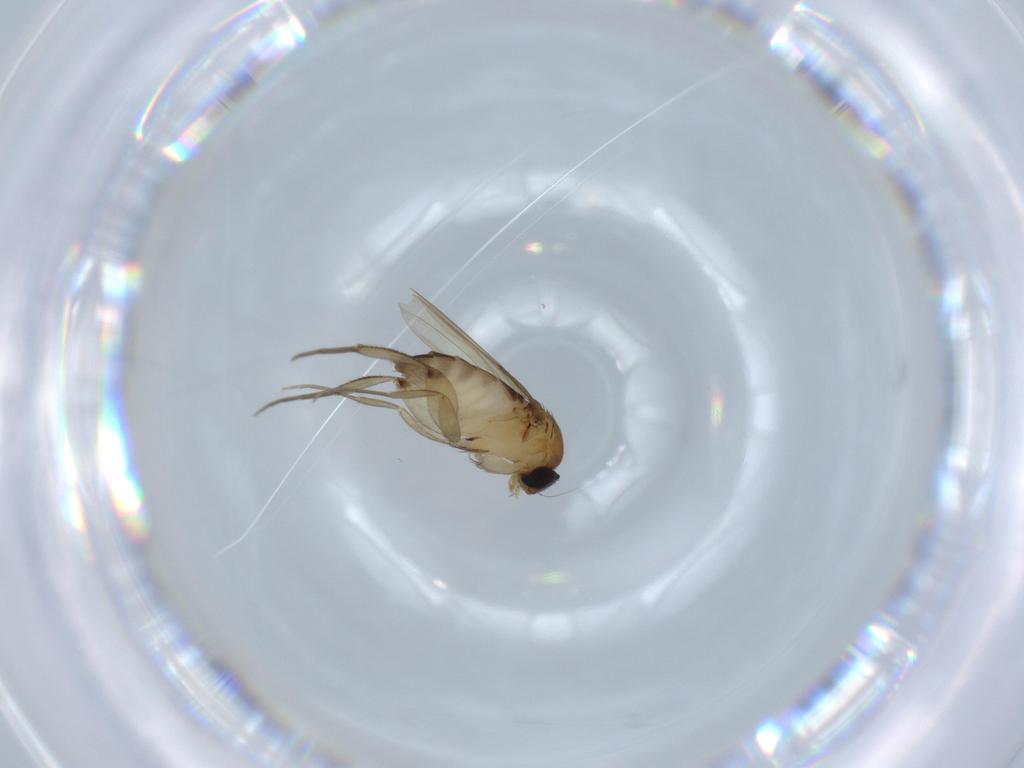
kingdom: Animalia
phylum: Arthropoda
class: Insecta
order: Diptera
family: Phoridae
